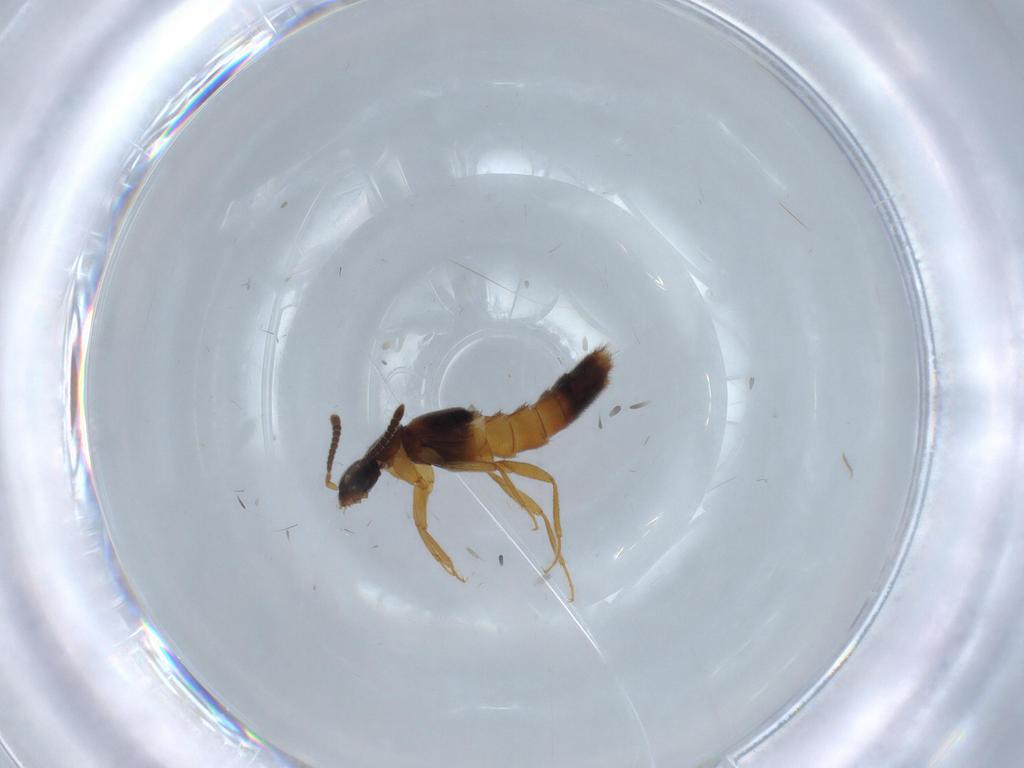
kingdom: Animalia
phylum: Arthropoda
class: Insecta
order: Coleoptera
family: Staphylinidae
